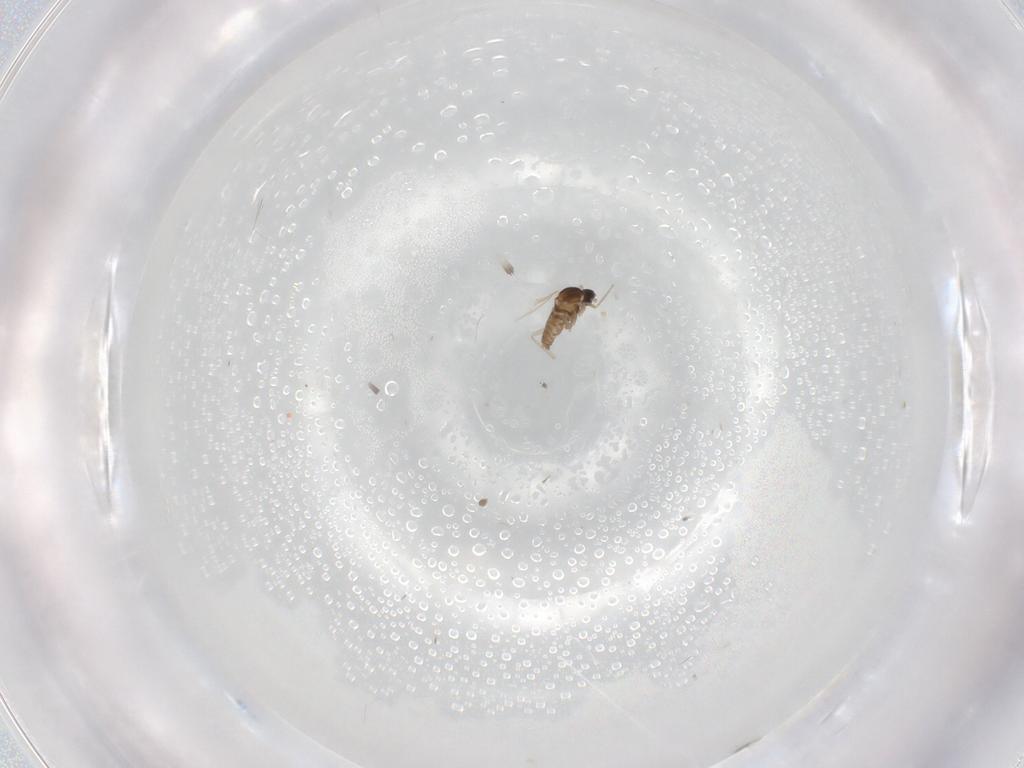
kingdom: Animalia
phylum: Arthropoda
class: Insecta
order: Diptera
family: Cecidomyiidae
